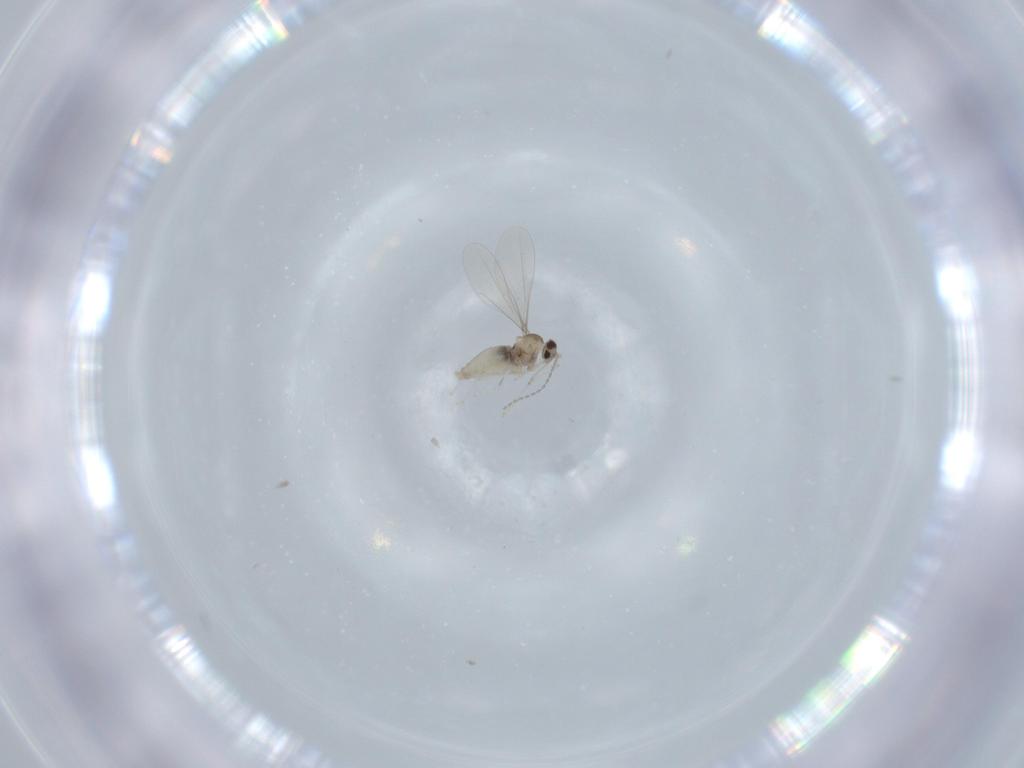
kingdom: Animalia
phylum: Arthropoda
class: Insecta
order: Diptera
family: Cecidomyiidae
